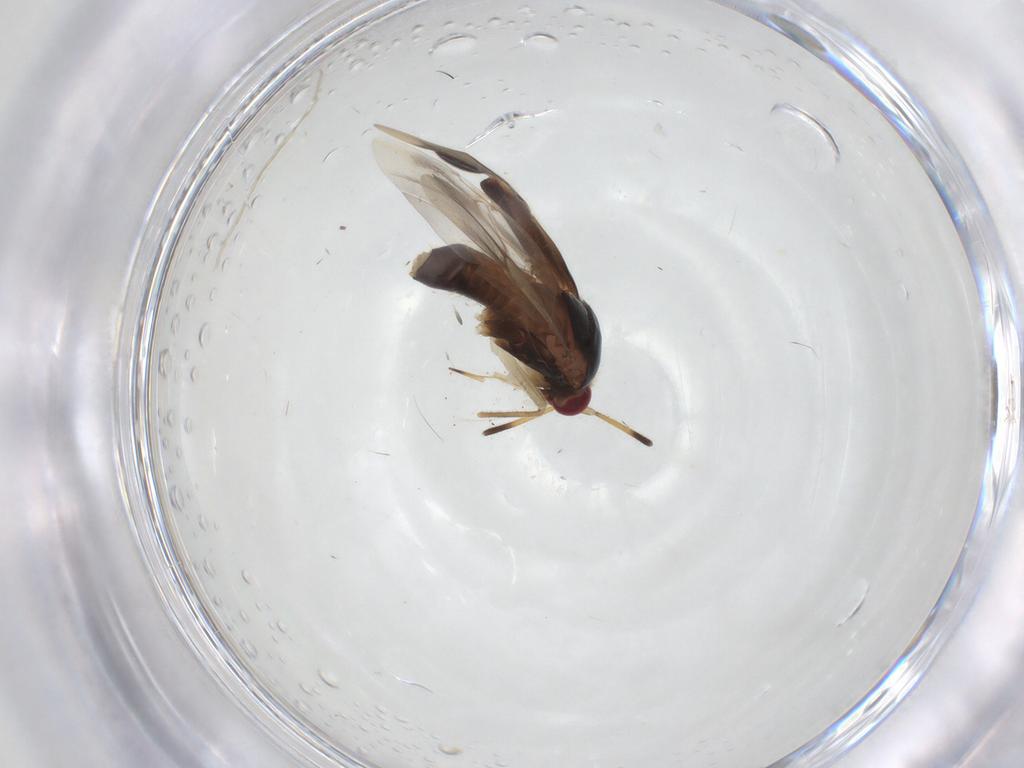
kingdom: Animalia
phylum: Arthropoda
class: Insecta
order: Hemiptera
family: Miridae
